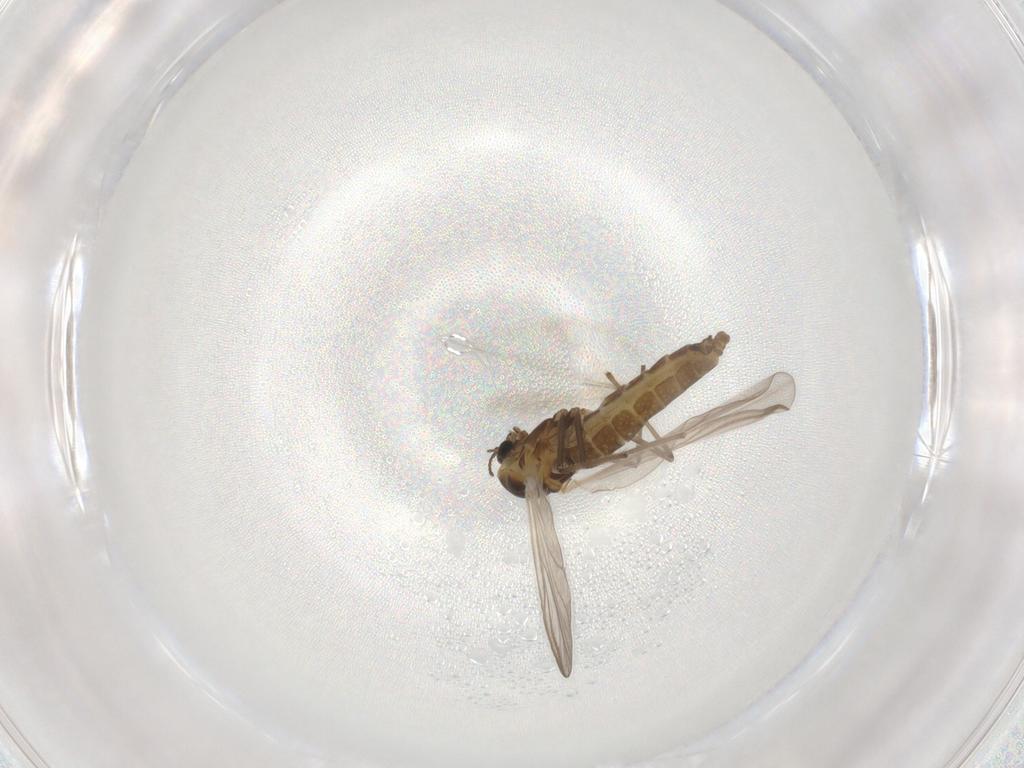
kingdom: Animalia
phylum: Arthropoda
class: Insecta
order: Diptera
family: Chironomidae
